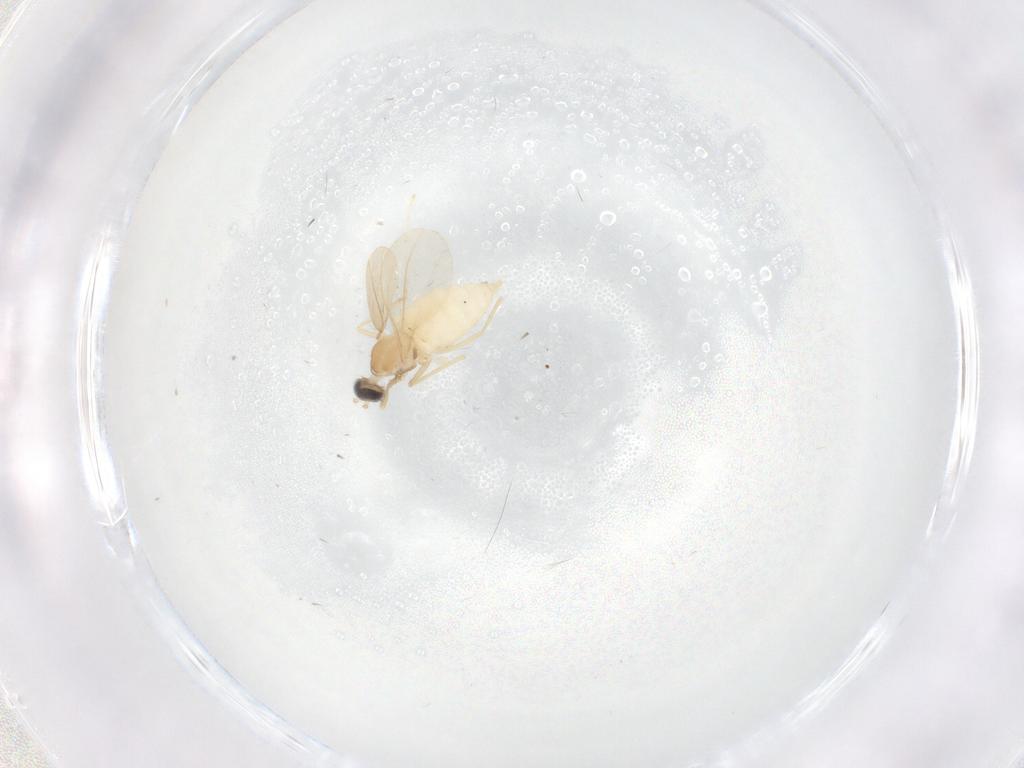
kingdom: Animalia
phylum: Arthropoda
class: Insecta
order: Diptera
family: Cecidomyiidae
